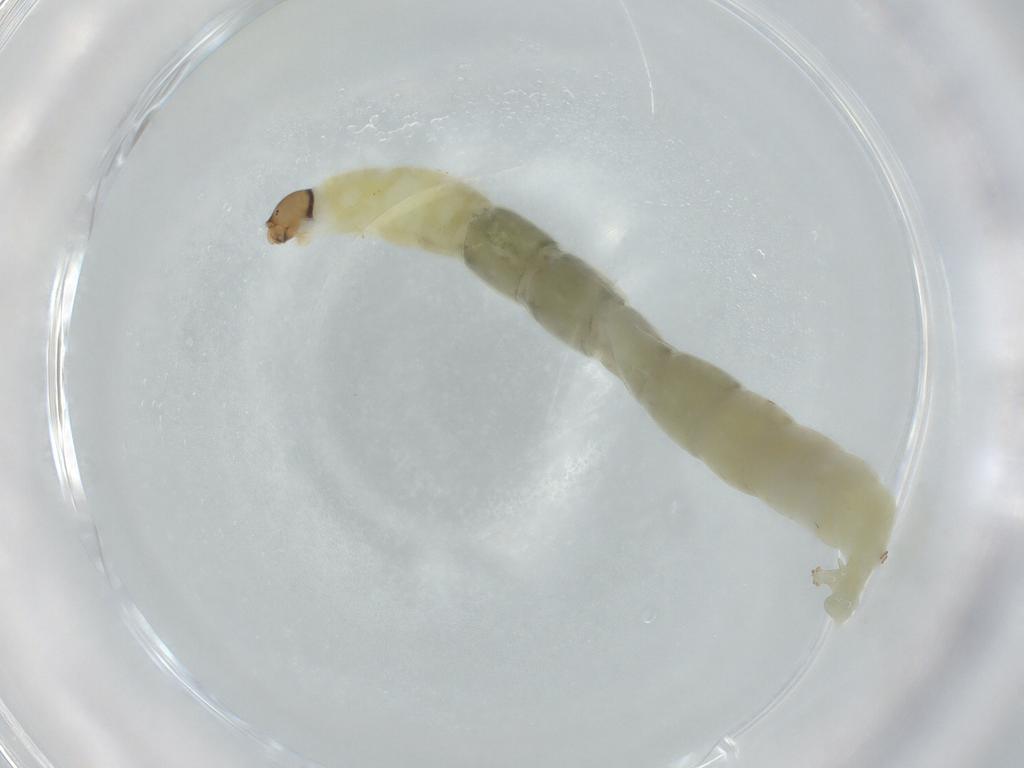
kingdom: Animalia
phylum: Arthropoda
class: Insecta
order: Diptera
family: Chironomidae
